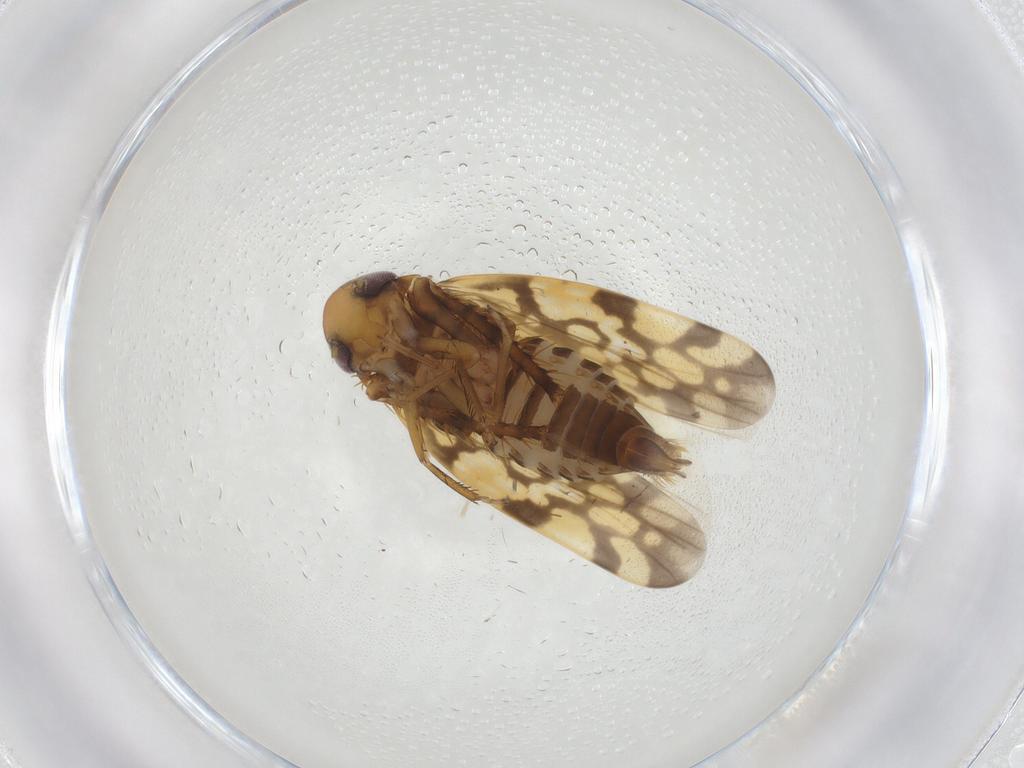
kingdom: Animalia
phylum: Arthropoda
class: Insecta
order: Hemiptera
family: Cicadellidae
